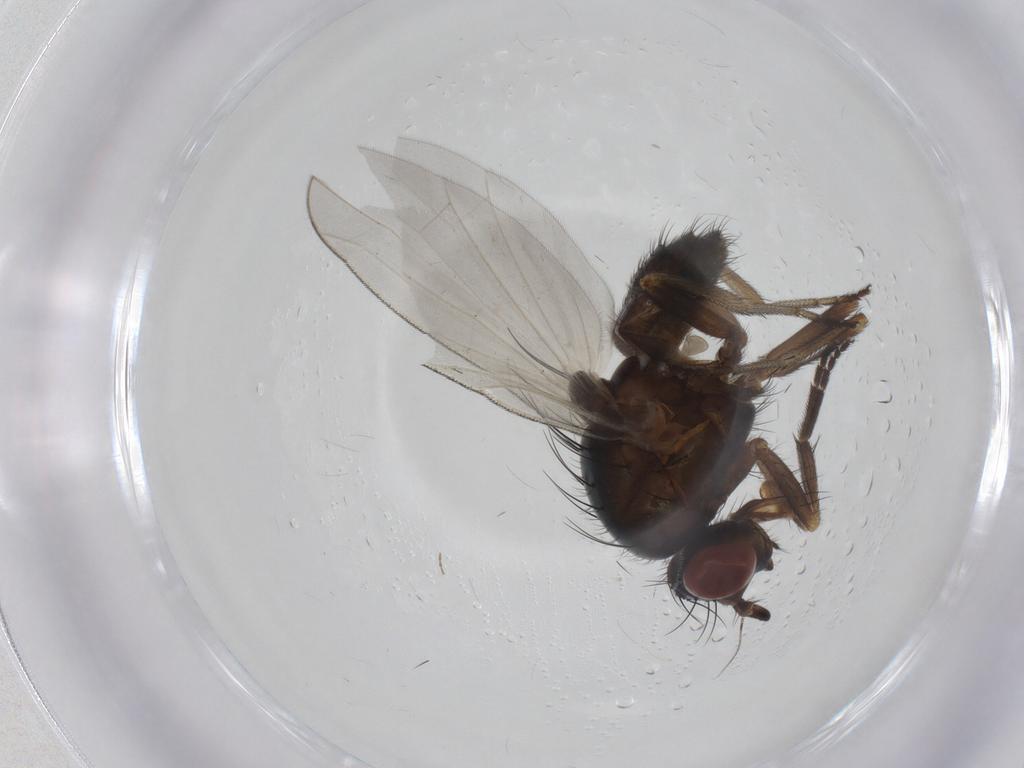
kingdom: Animalia
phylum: Arthropoda
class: Insecta
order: Diptera
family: Lauxaniidae
